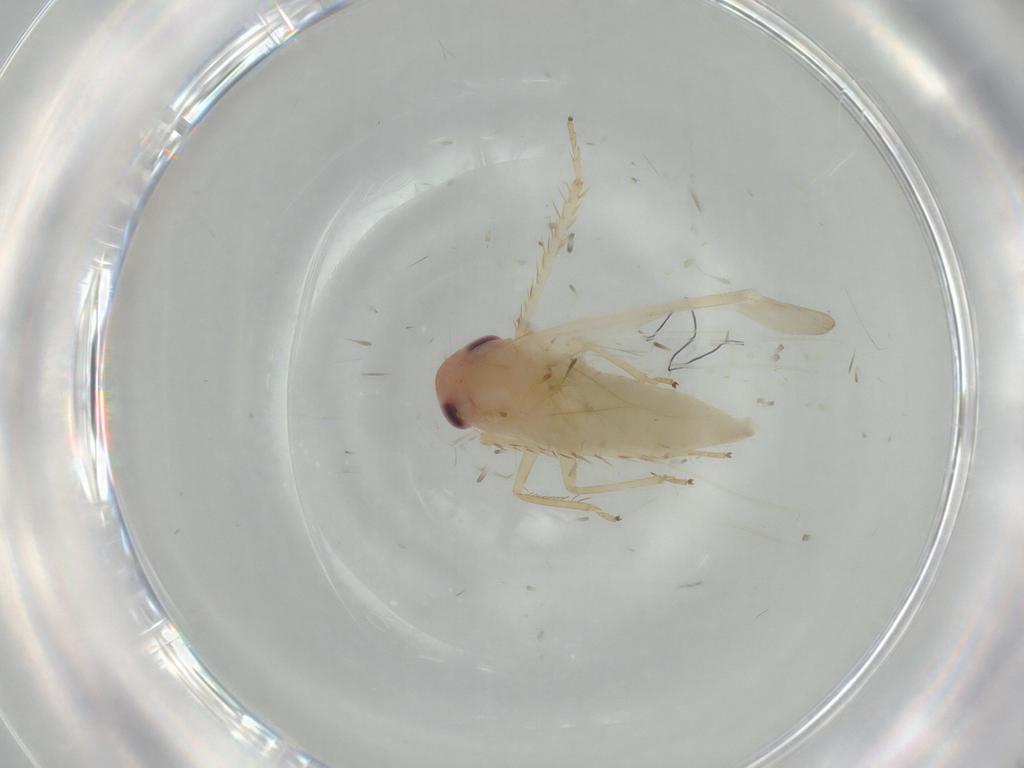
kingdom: Animalia
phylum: Arthropoda
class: Insecta
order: Hemiptera
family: Cicadellidae
